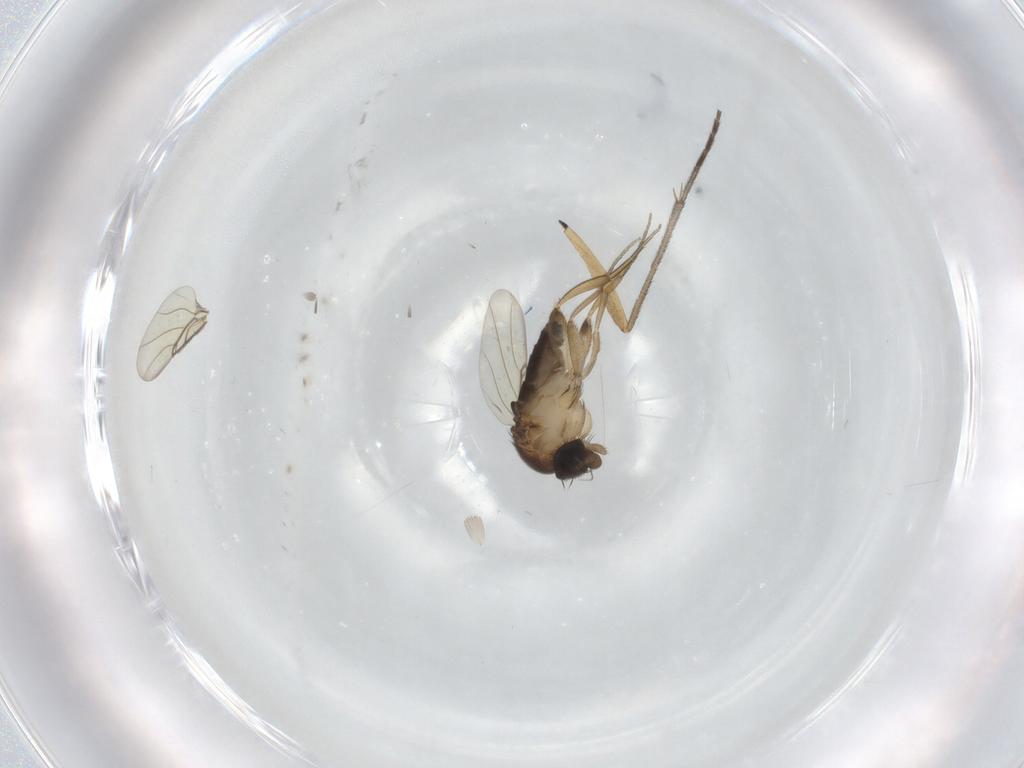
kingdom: Animalia
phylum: Arthropoda
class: Insecta
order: Diptera
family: Phoridae
